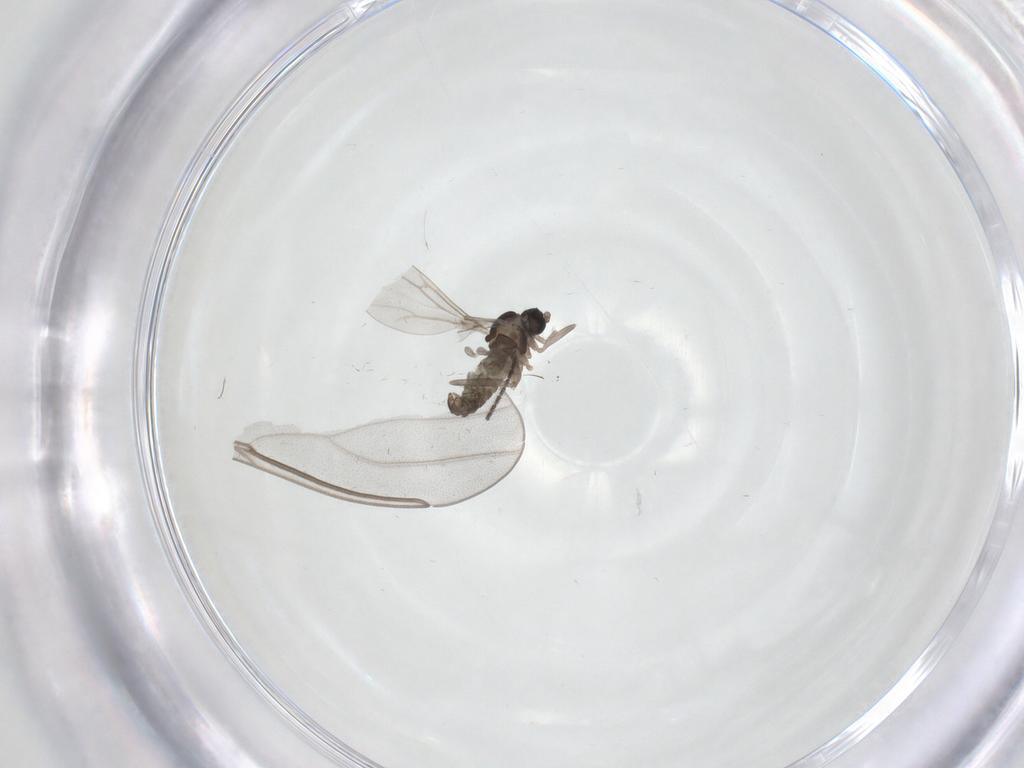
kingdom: Animalia
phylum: Arthropoda
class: Insecta
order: Diptera
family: Cecidomyiidae
